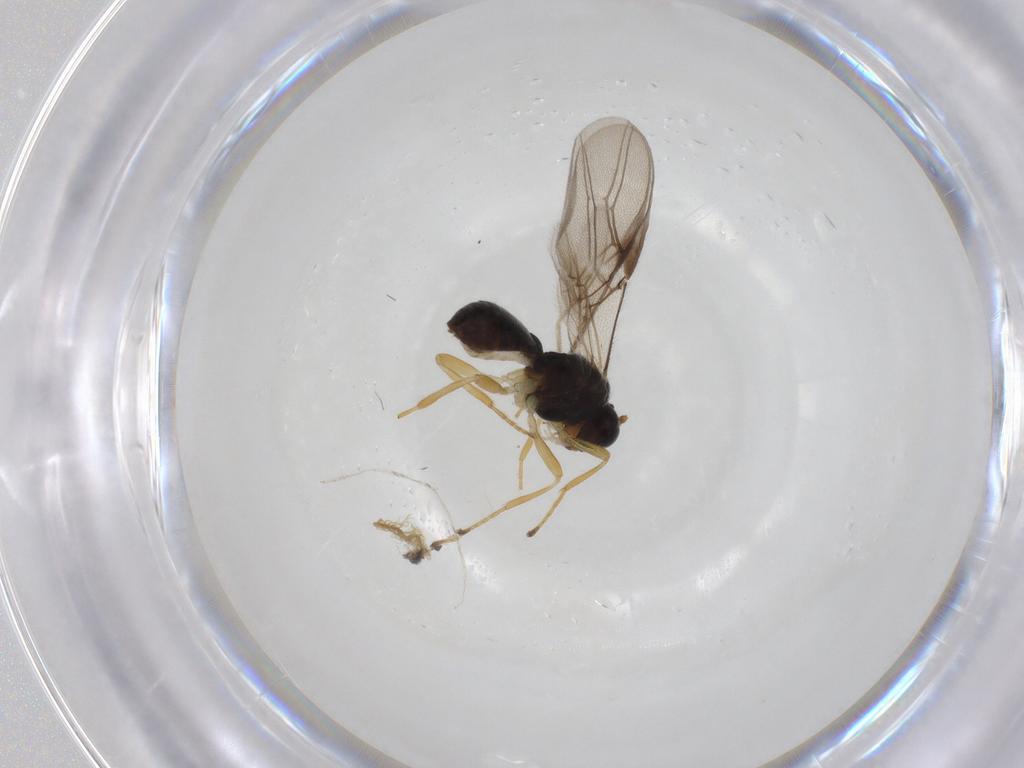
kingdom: Animalia
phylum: Arthropoda
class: Insecta
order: Hymenoptera
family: Braconidae
